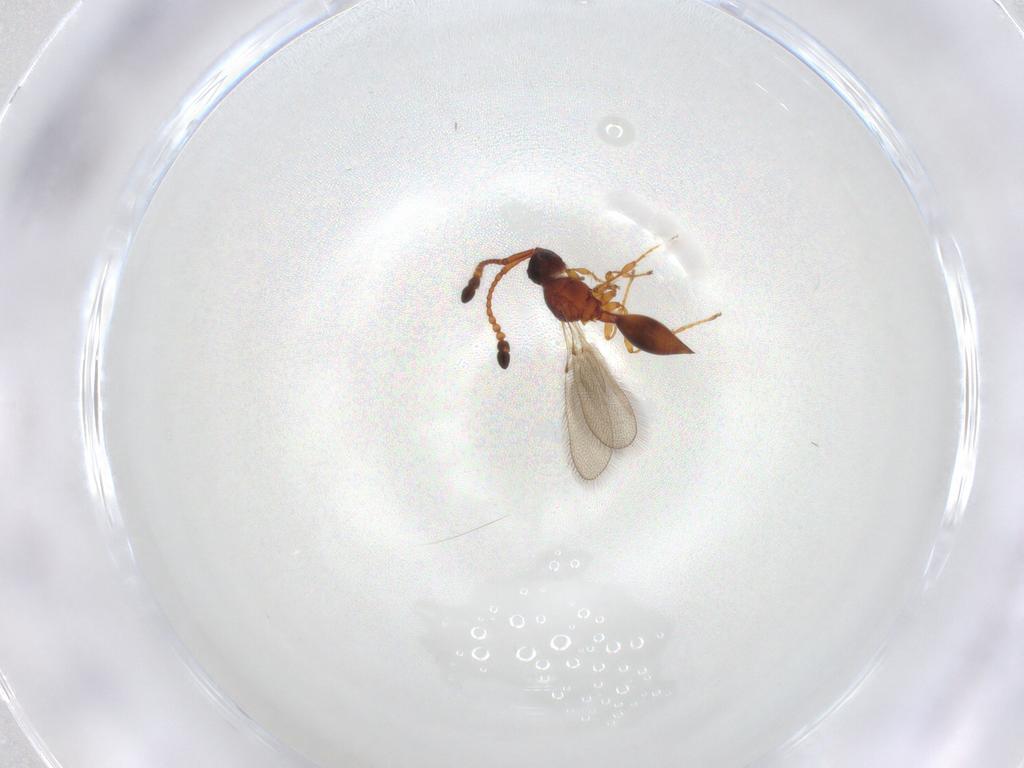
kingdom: Animalia
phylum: Arthropoda
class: Insecta
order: Hymenoptera
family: Diapriidae
